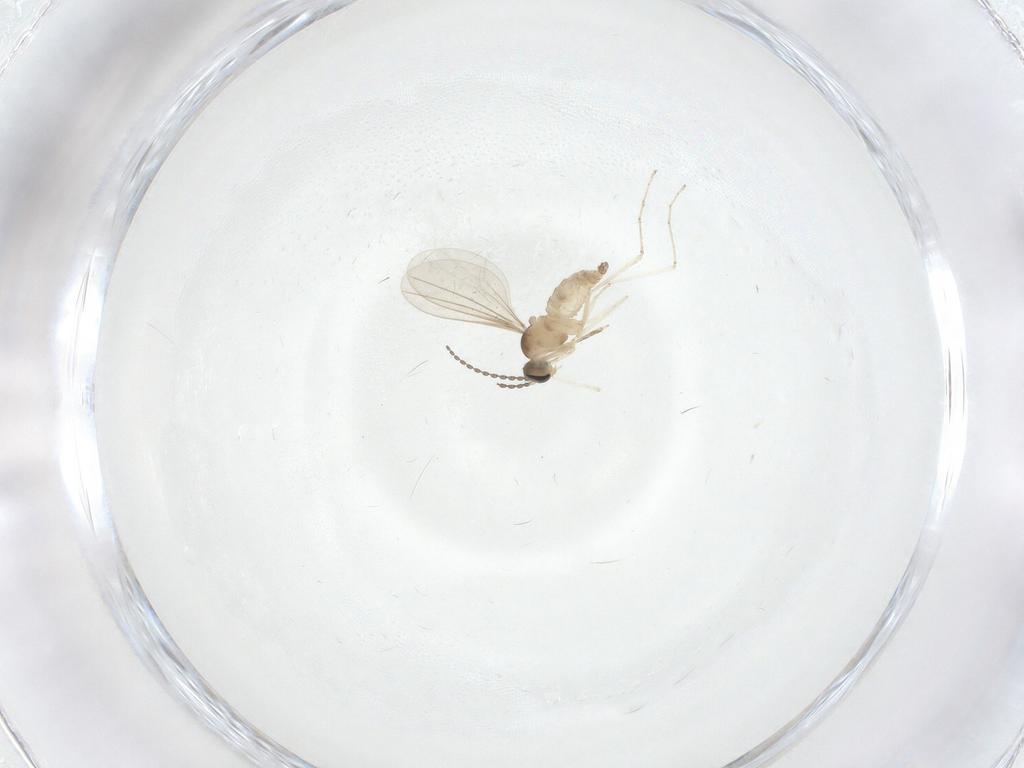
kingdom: Animalia
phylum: Arthropoda
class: Insecta
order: Diptera
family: Cecidomyiidae
